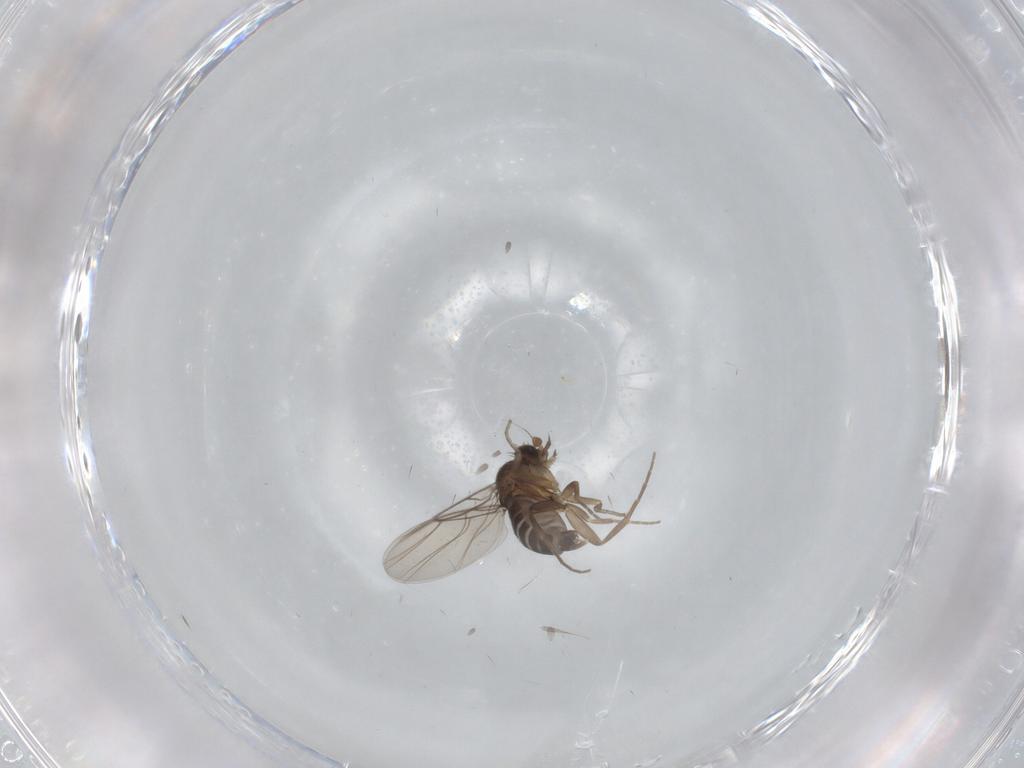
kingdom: Animalia
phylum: Arthropoda
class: Insecta
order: Diptera
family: Phoridae
